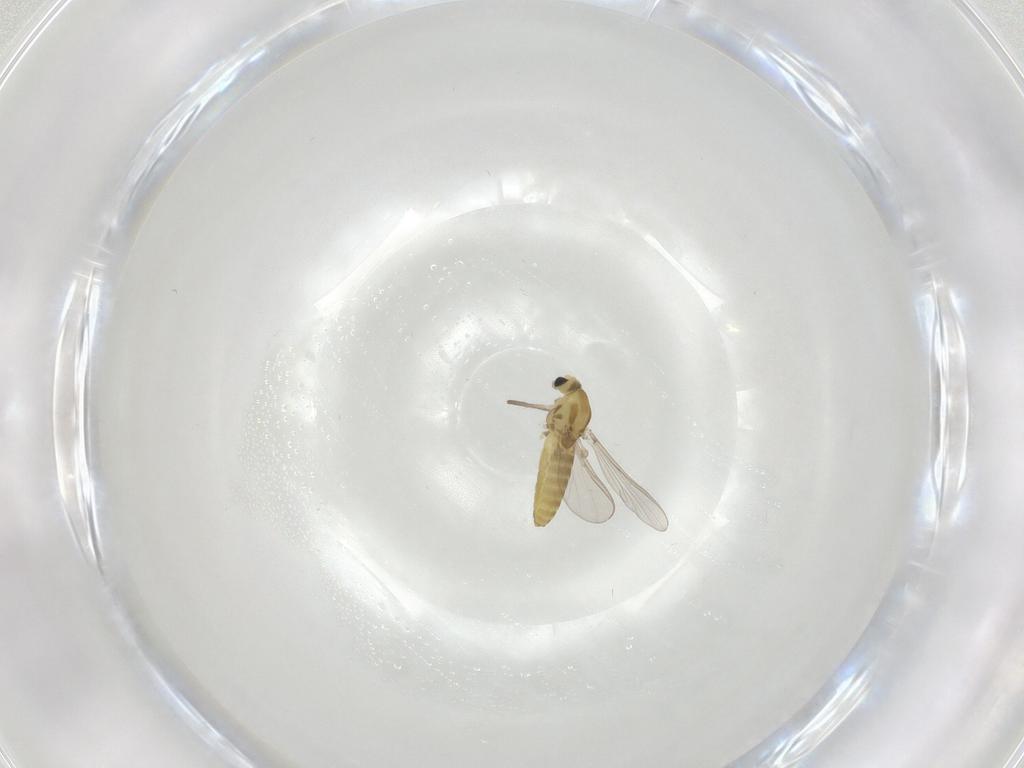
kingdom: Animalia
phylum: Arthropoda
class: Insecta
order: Diptera
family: Chironomidae
